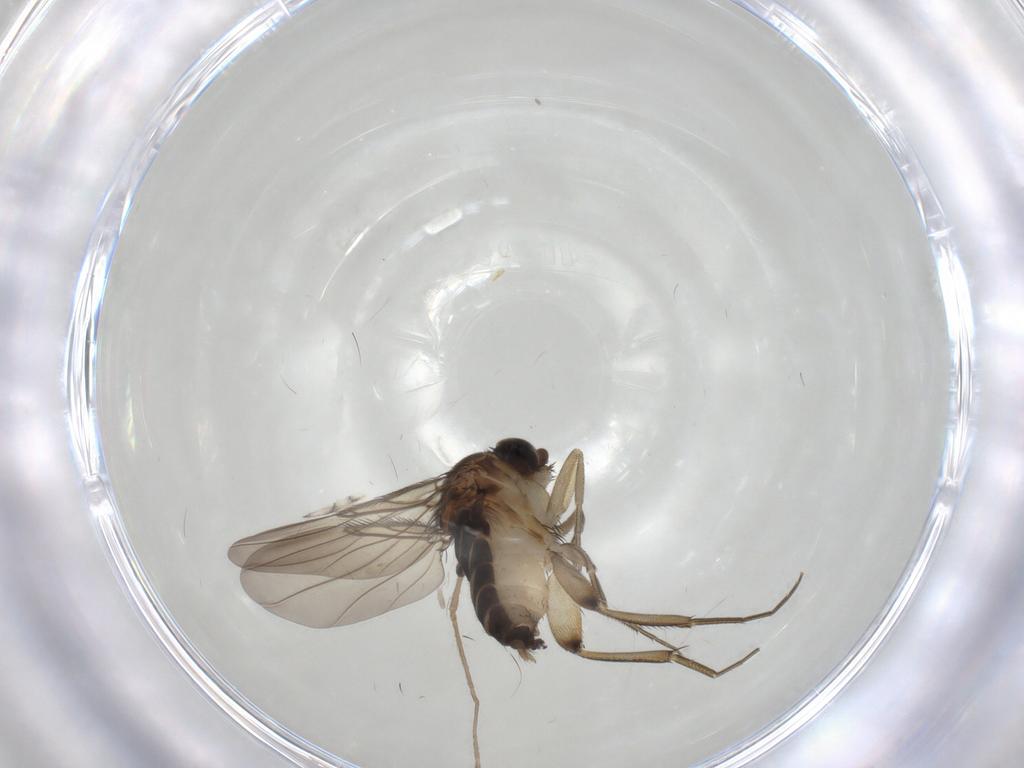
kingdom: Animalia
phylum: Arthropoda
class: Insecta
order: Diptera
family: Phoridae
